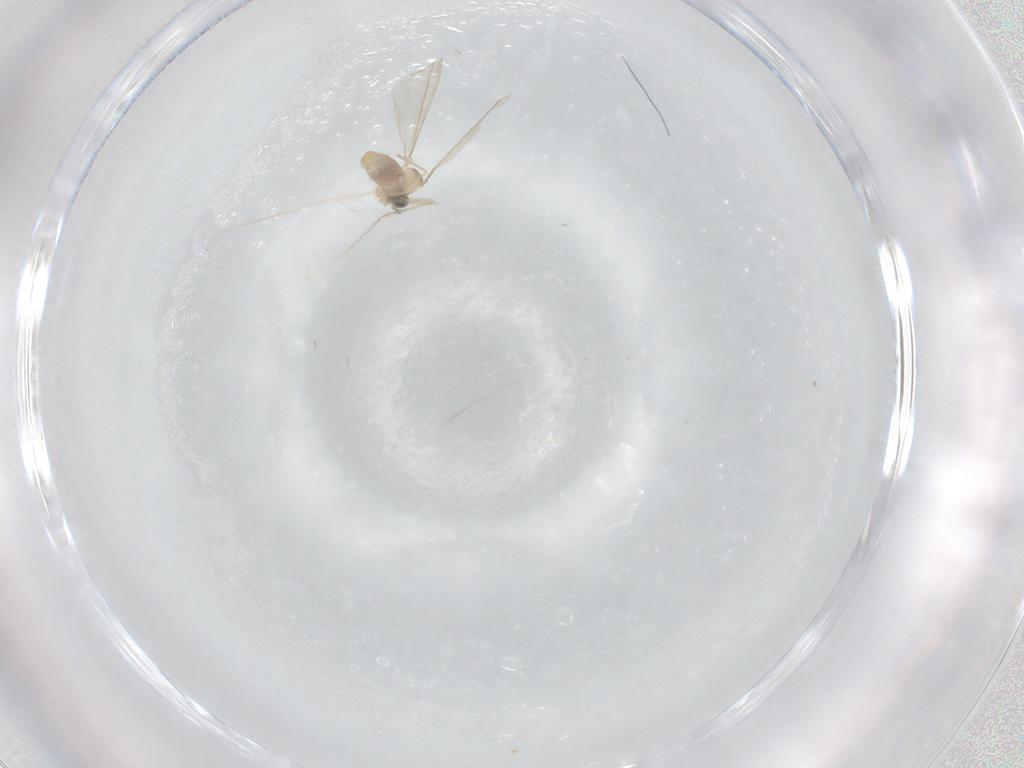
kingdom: Animalia
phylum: Arthropoda
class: Insecta
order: Diptera
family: Cecidomyiidae
